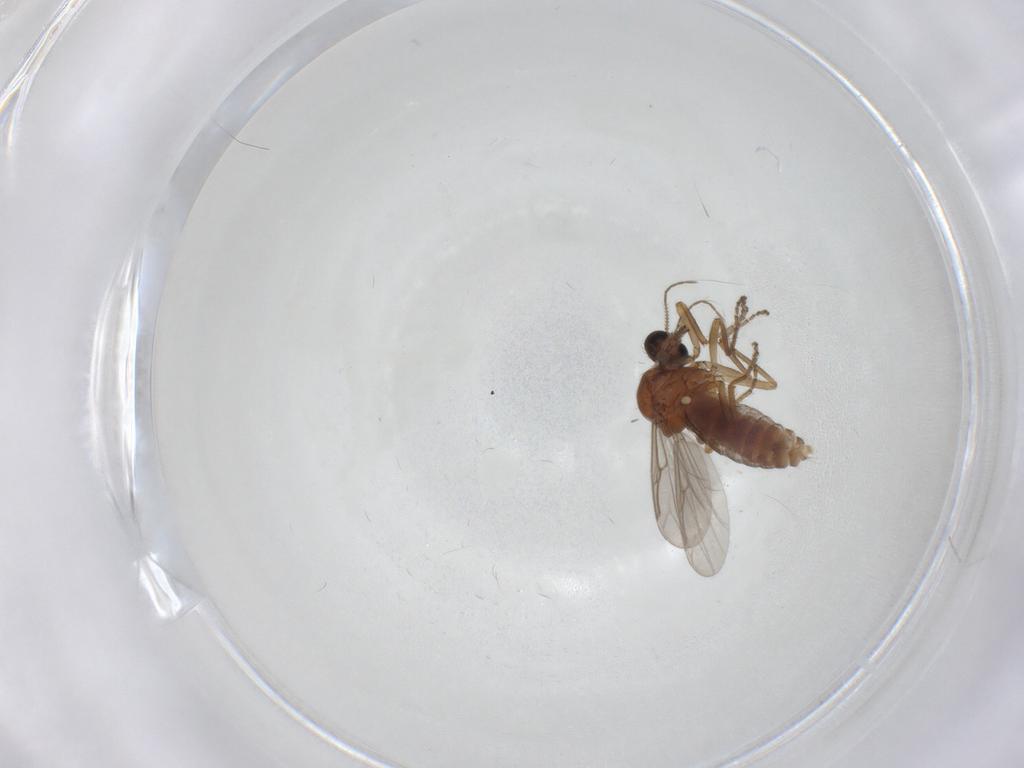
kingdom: Animalia
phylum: Arthropoda
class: Insecta
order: Diptera
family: Ceratopogonidae
